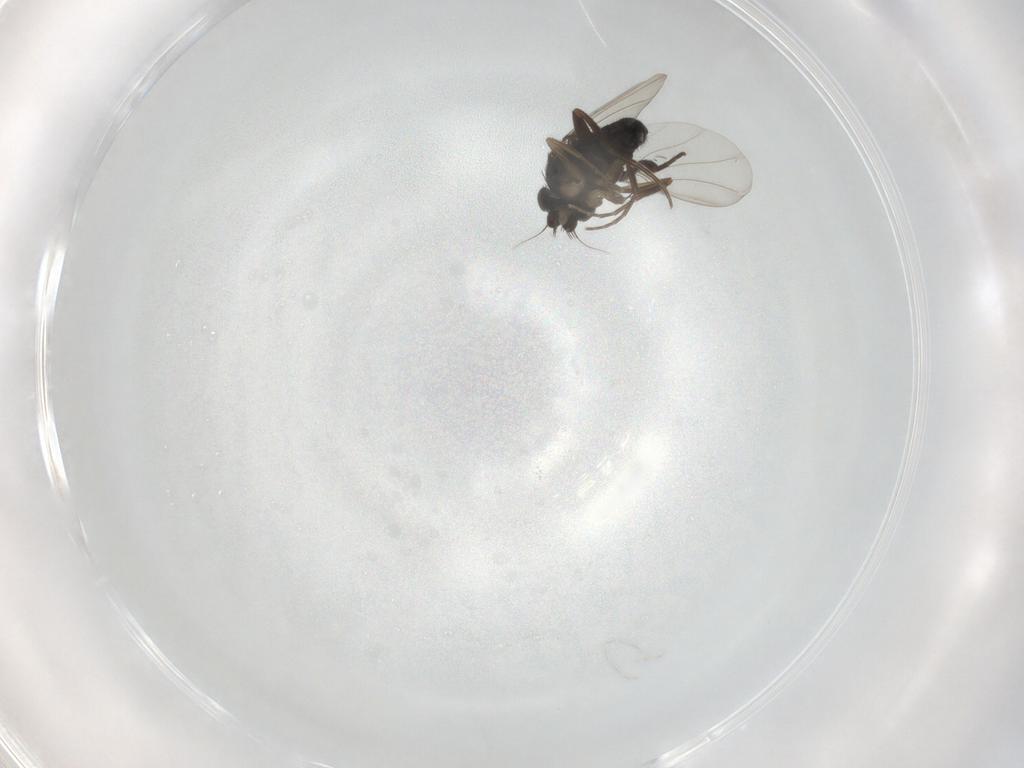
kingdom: Animalia
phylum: Arthropoda
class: Insecta
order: Diptera
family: Phoridae
